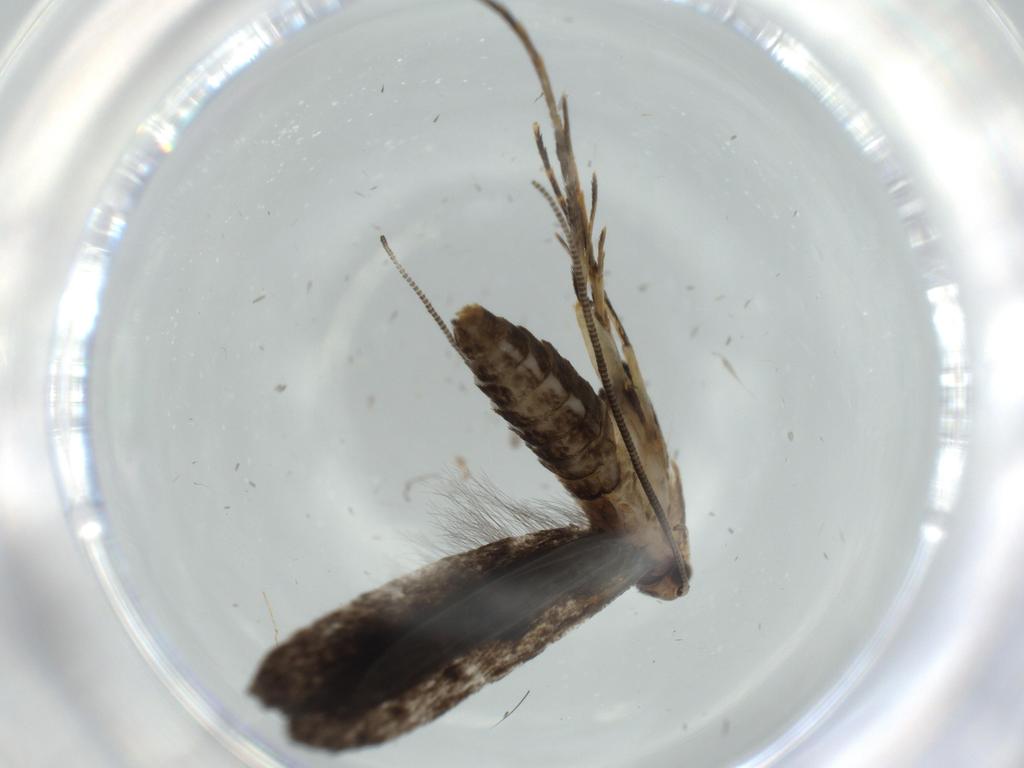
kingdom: Animalia
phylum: Arthropoda
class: Insecta
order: Lepidoptera
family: Tineidae
